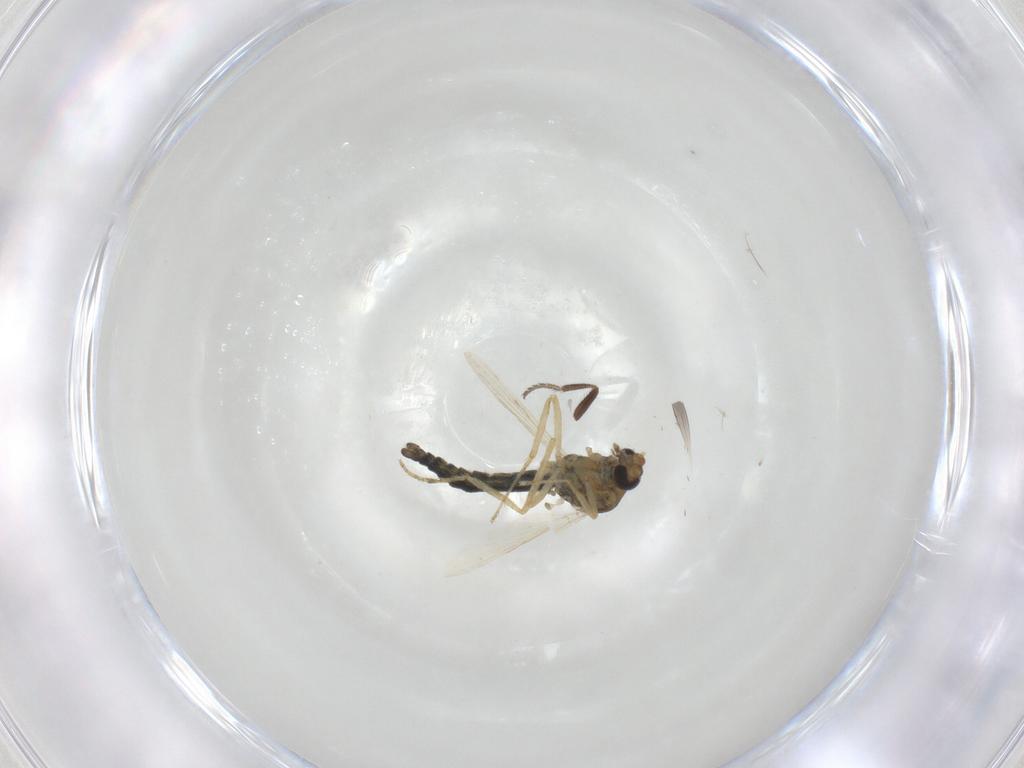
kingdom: Animalia
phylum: Arthropoda
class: Insecta
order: Diptera
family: Ceratopogonidae
